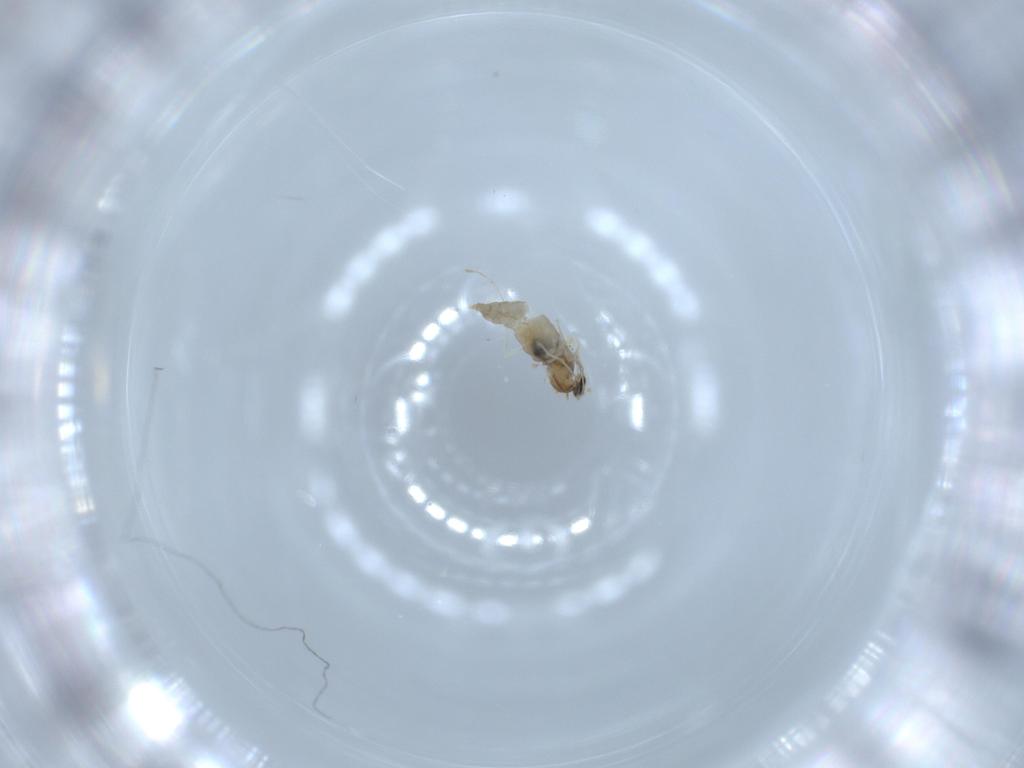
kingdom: Animalia
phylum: Arthropoda
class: Insecta
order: Diptera
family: Cecidomyiidae
